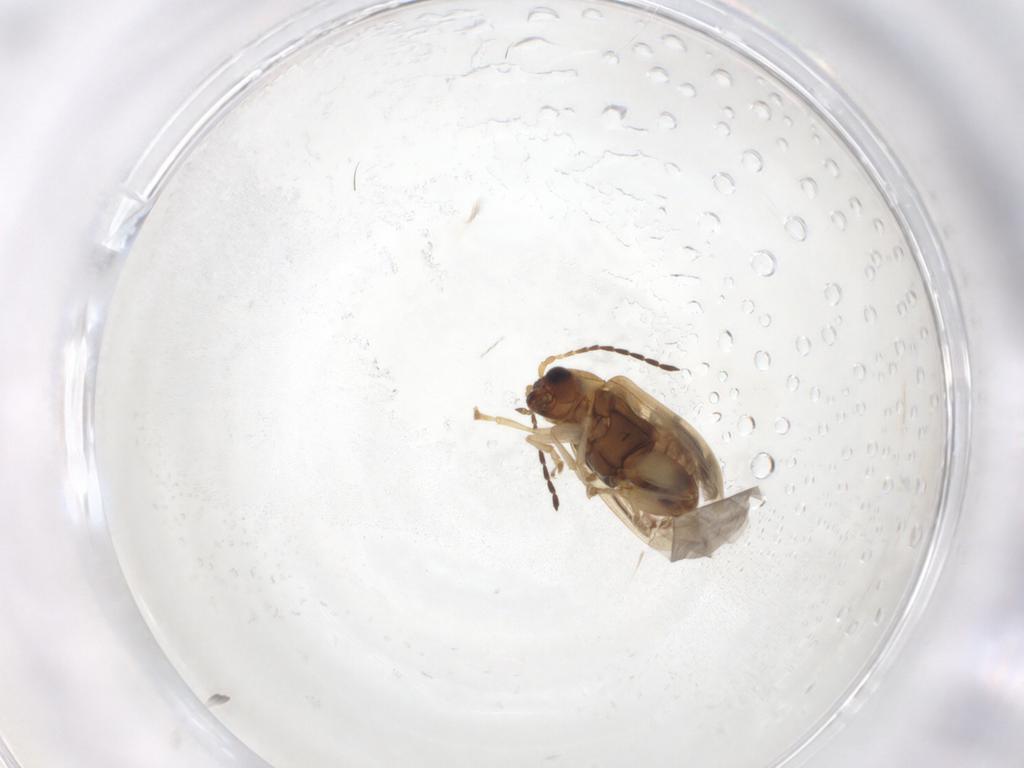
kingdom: Animalia
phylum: Arthropoda
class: Insecta
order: Coleoptera
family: Chrysomelidae
